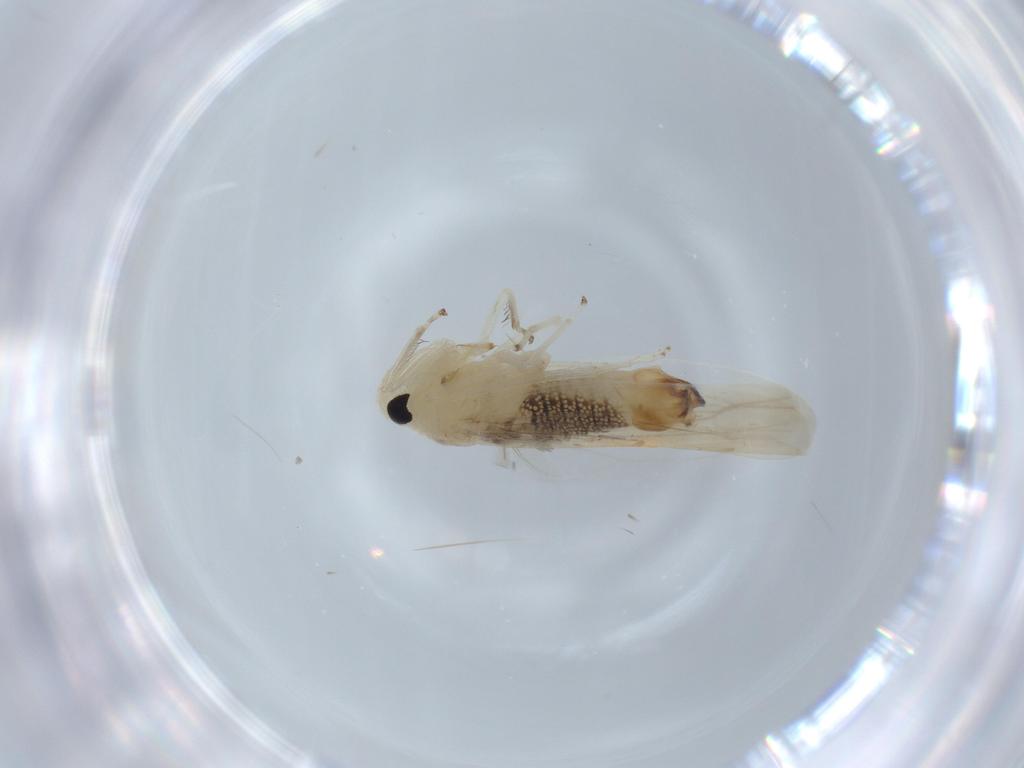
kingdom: Animalia
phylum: Arthropoda
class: Insecta
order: Hemiptera
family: Cicadellidae
